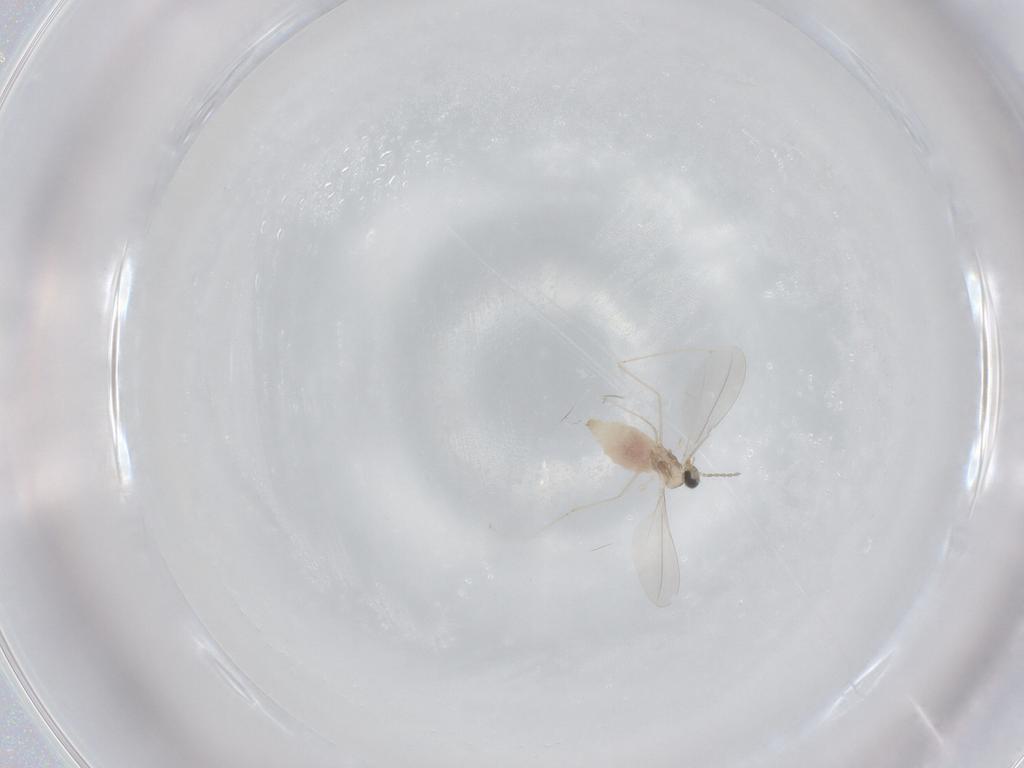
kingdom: Animalia
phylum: Arthropoda
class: Insecta
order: Diptera
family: Cecidomyiidae
